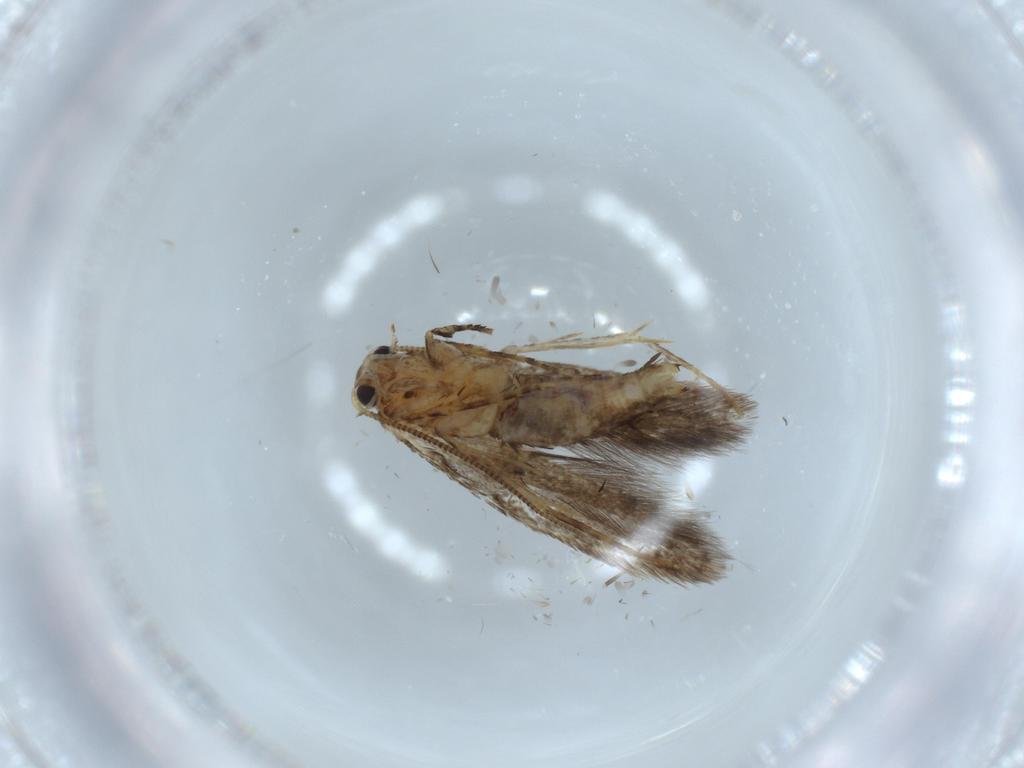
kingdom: Animalia
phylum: Arthropoda
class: Insecta
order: Lepidoptera
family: Meessiidae
